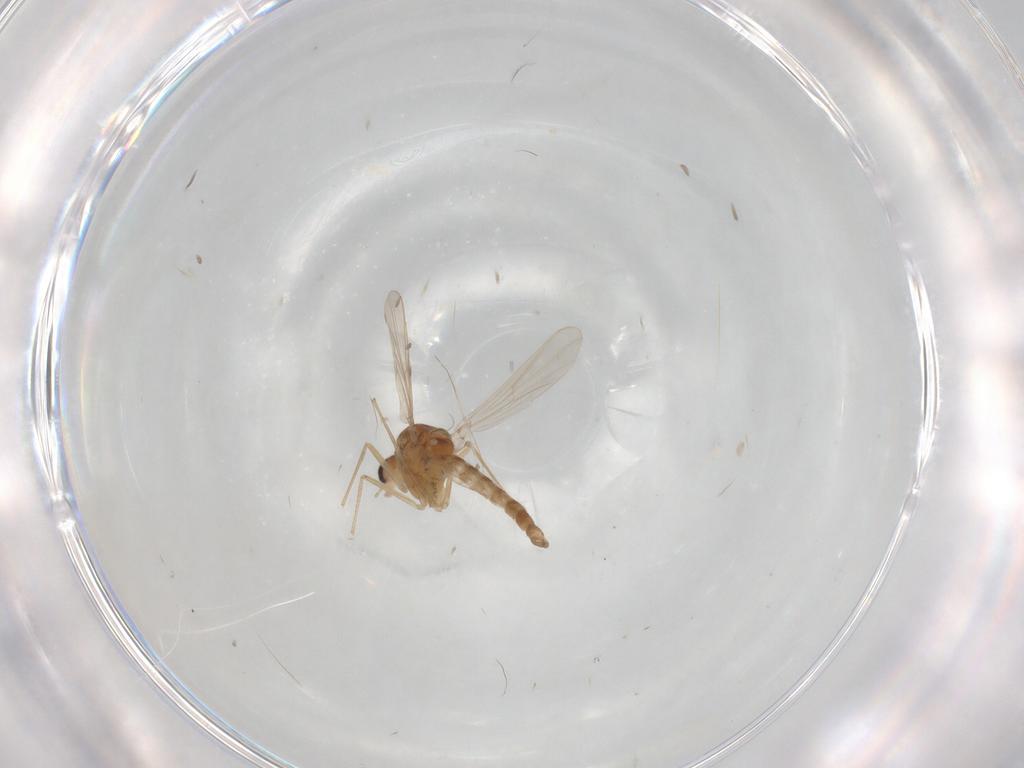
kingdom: Animalia
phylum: Arthropoda
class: Insecta
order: Diptera
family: Chironomidae
